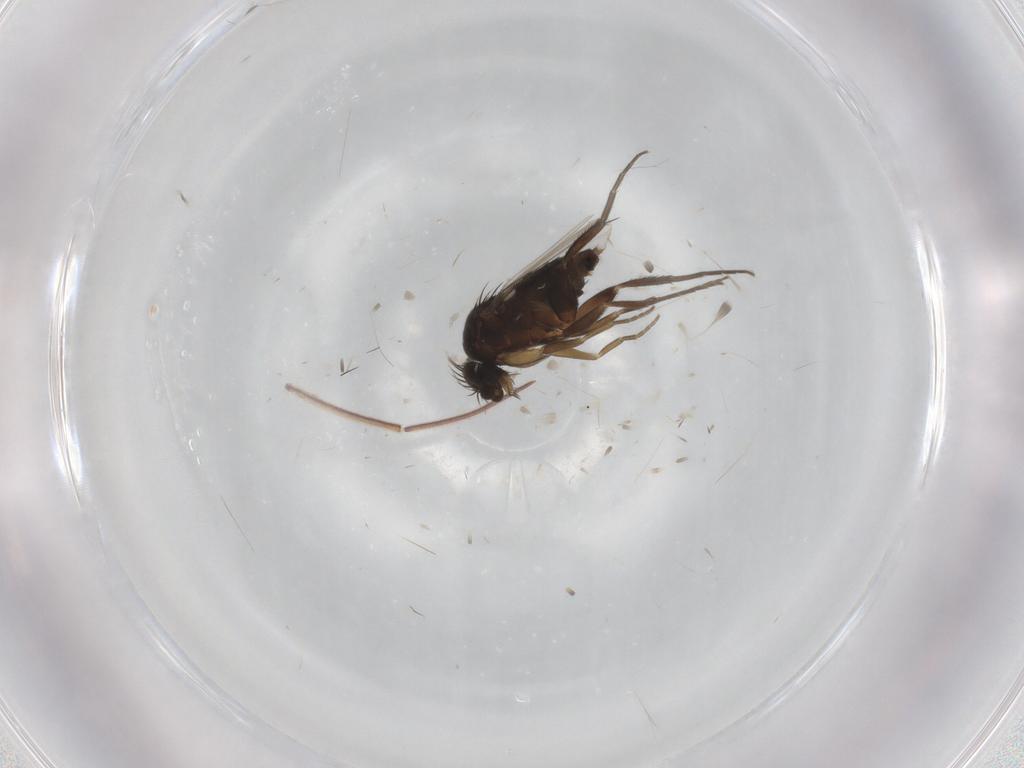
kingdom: Animalia
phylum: Arthropoda
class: Insecta
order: Diptera
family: Phoridae
